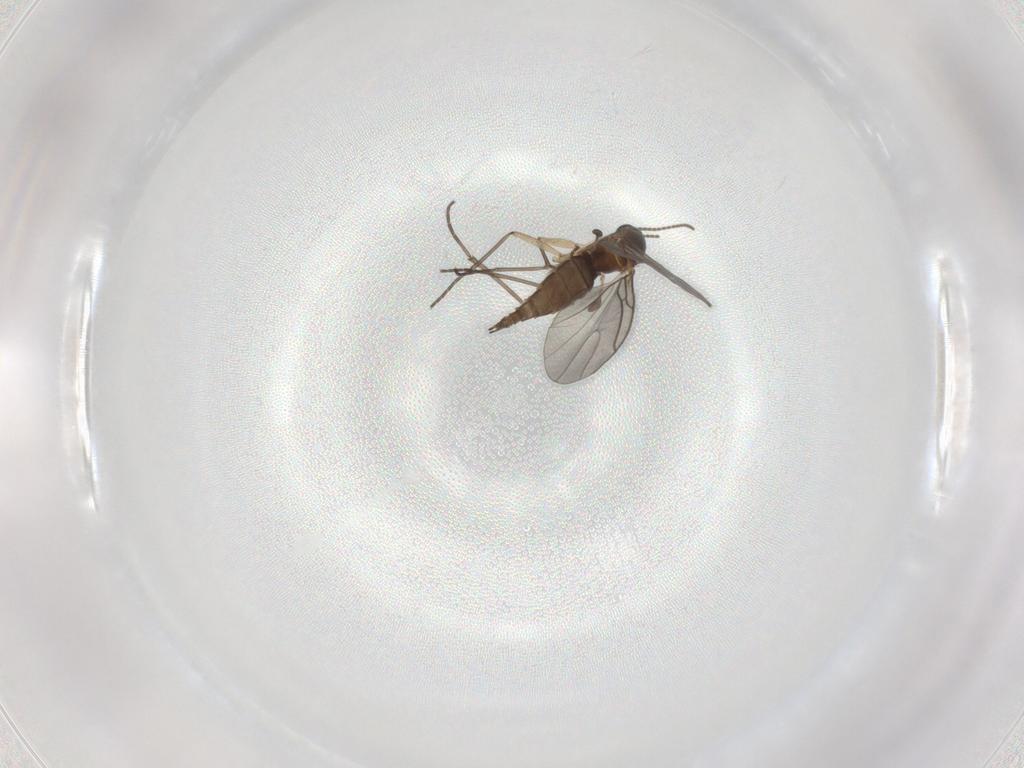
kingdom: Animalia
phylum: Arthropoda
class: Insecta
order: Diptera
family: Sciaridae
